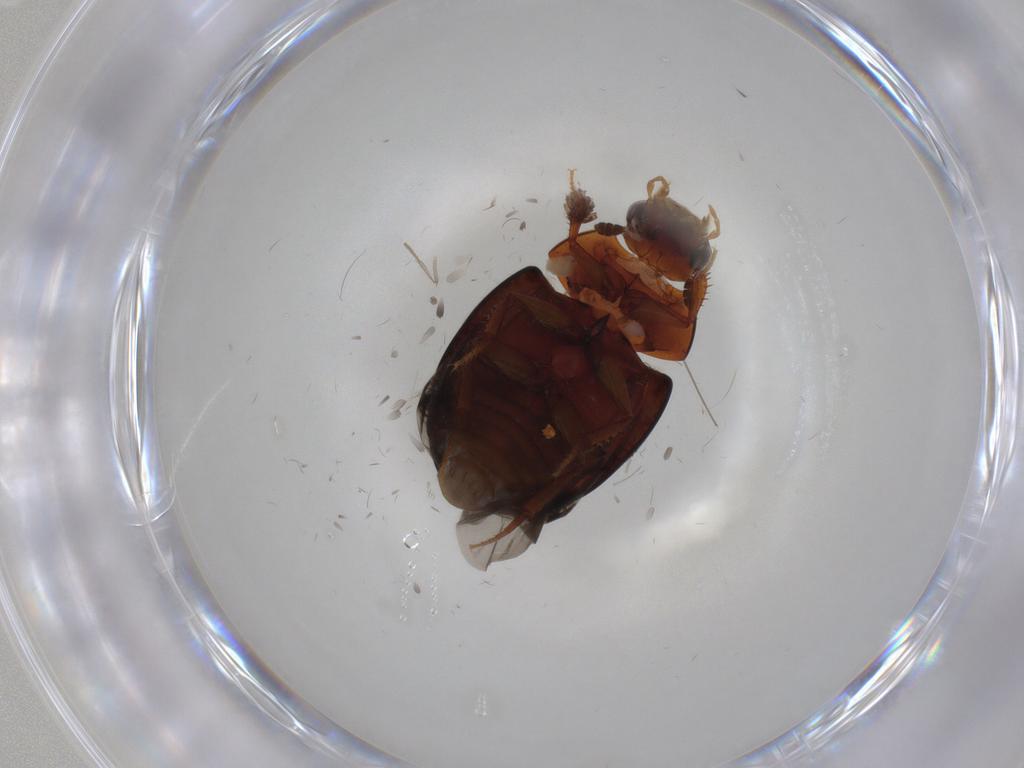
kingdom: Animalia
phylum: Arthropoda
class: Insecta
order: Coleoptera
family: Hydrophilidae
